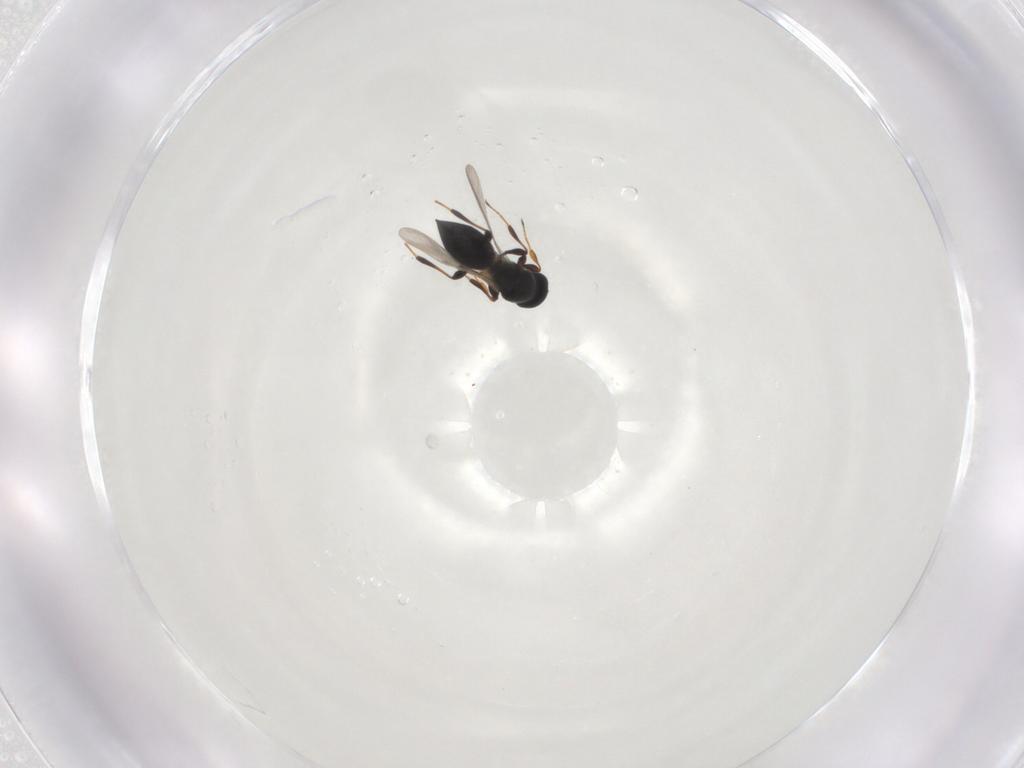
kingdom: Animalia
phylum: Arthropoda
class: Insecta
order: Hymenoptera
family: Platygastridae
